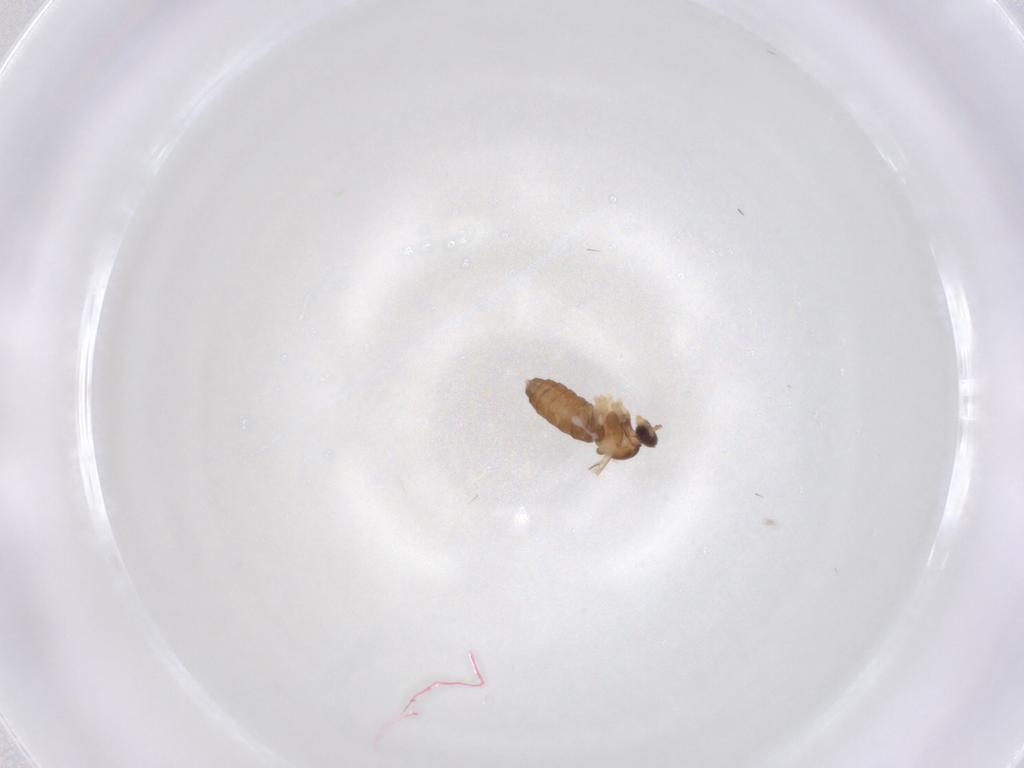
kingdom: Animalia
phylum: Arthropoda
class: Insecta
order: Diptera
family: Cecidomyiidae
